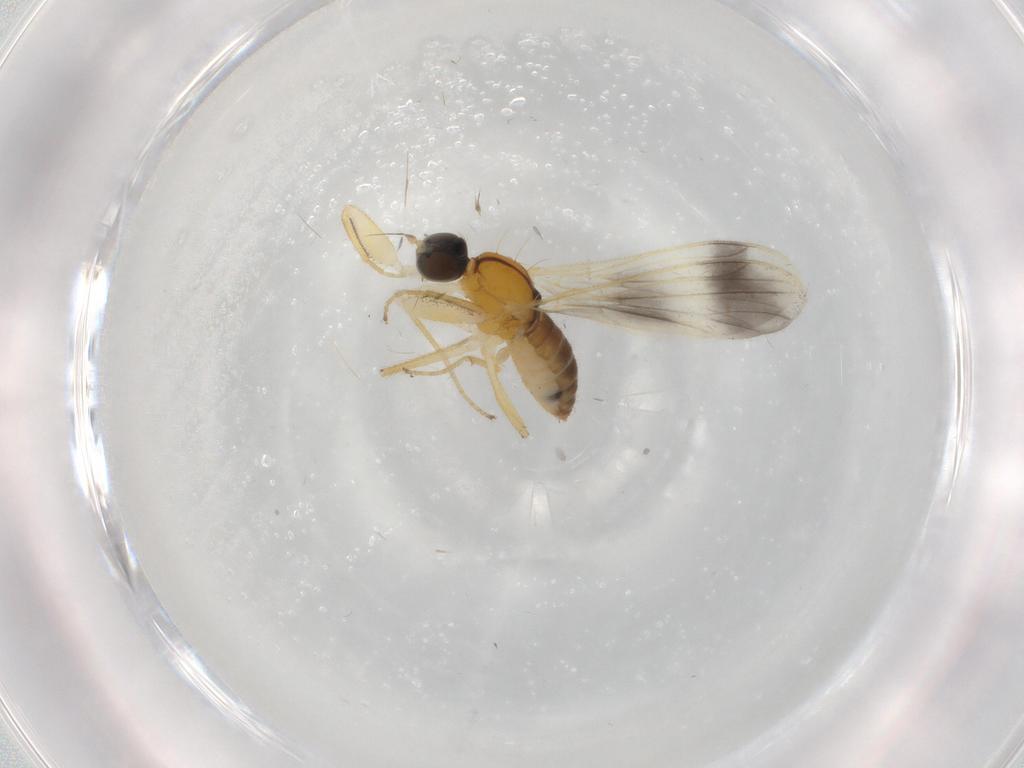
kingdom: Animalia
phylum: Arthropoda
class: Insecta
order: Diptera
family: Empididae
